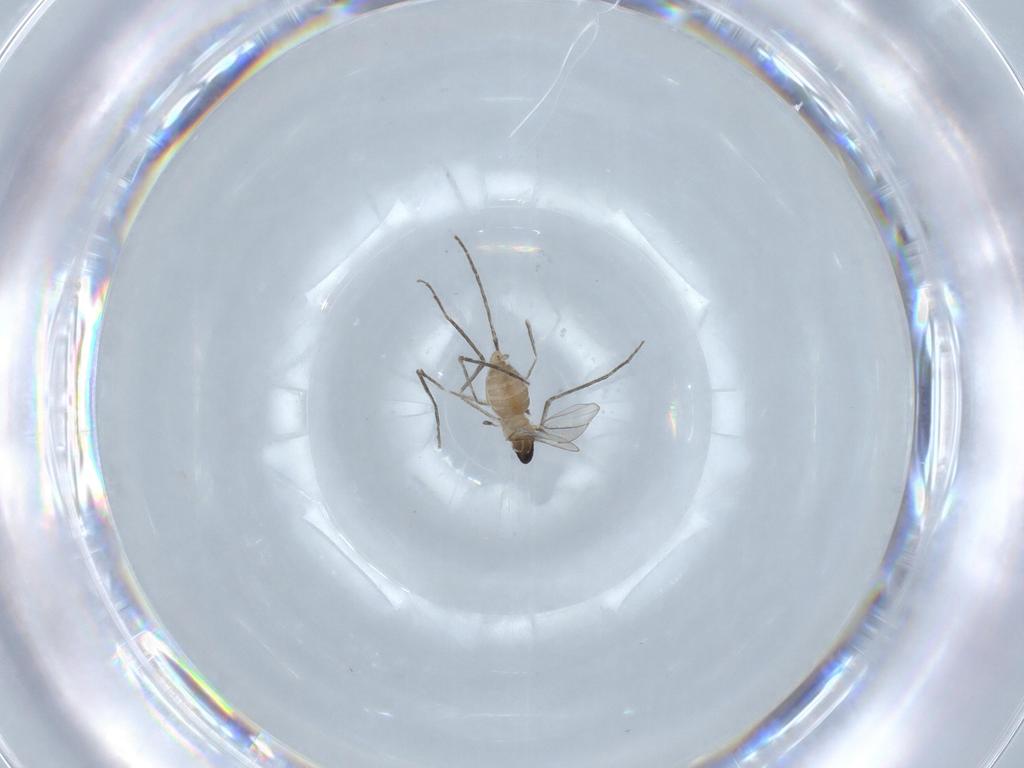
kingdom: Animalia
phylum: Arthropoda
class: Insecta
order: Diptera
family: Cecidomyiidae
